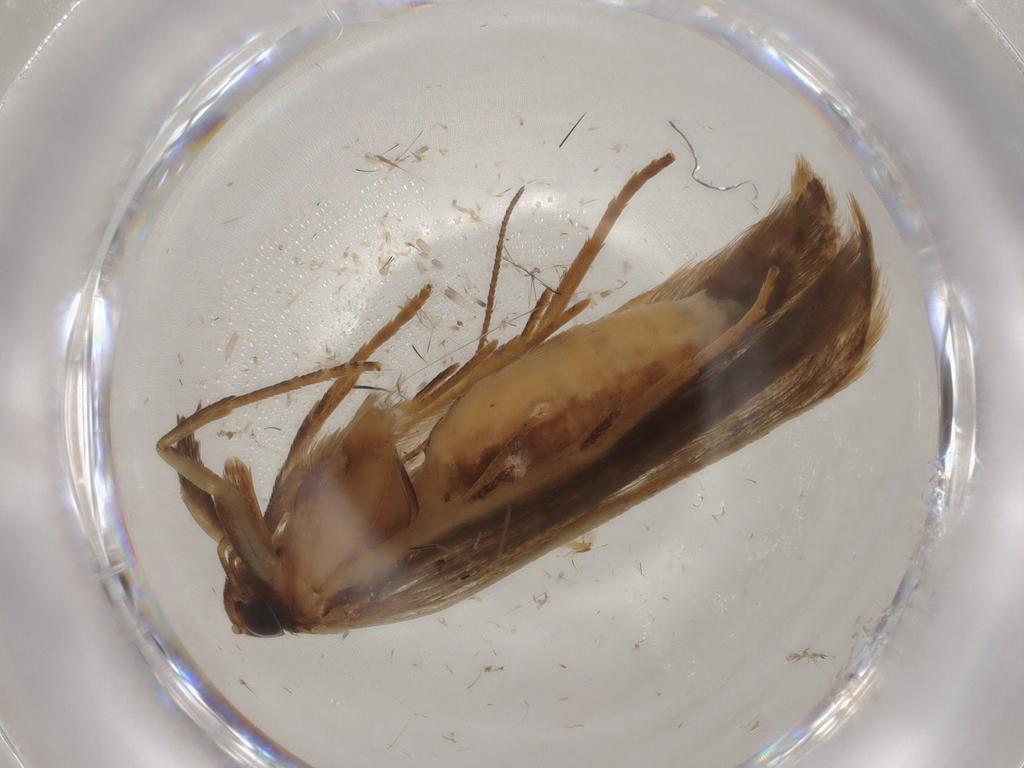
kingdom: Animalia
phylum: Arthropoda
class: Insecta
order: Lepidoptera
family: Gelechiidae
